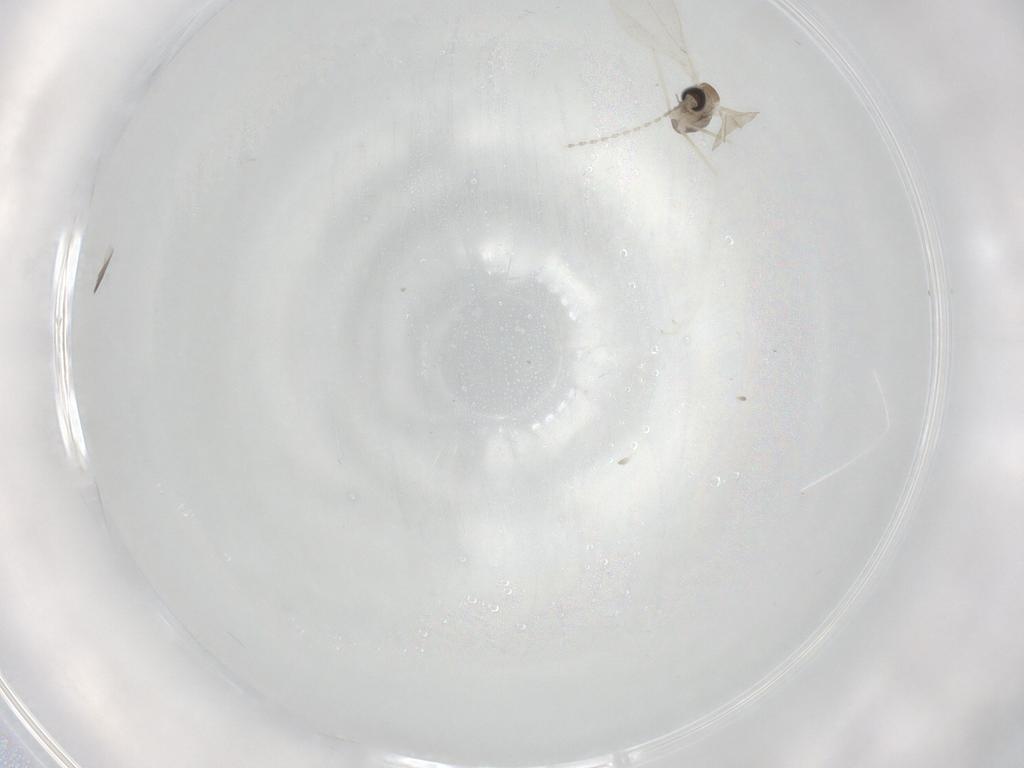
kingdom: Animalia
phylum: Arthropoda
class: Insecta
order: Diptera
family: Cecidomyiidae
